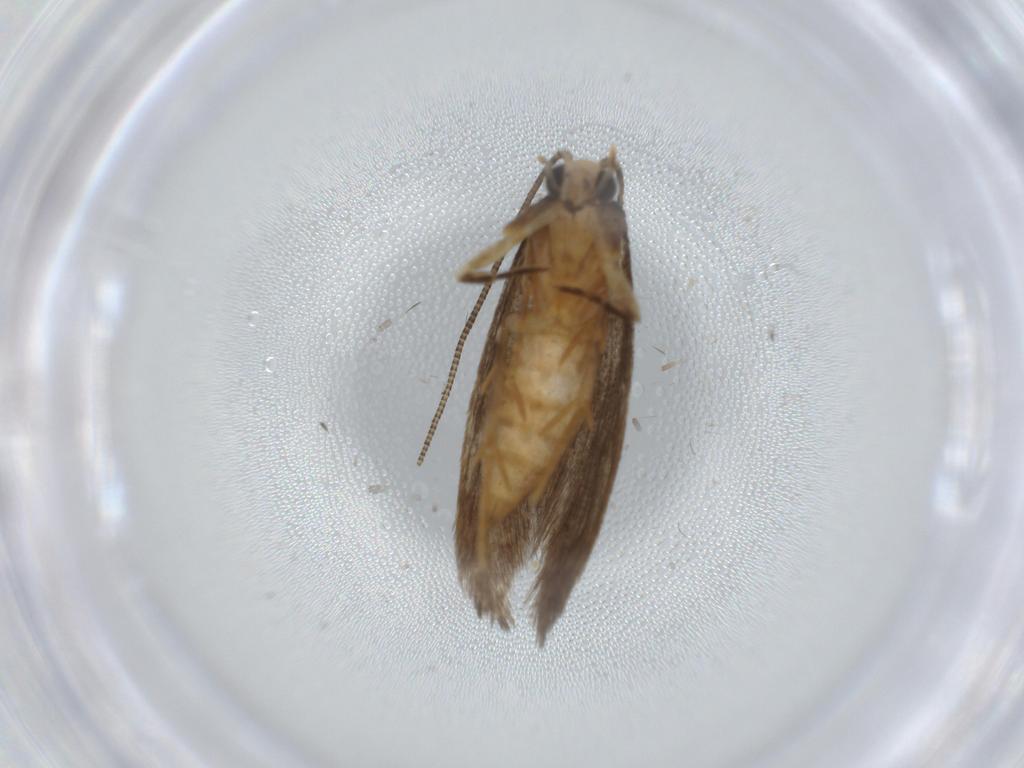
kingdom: Animalia
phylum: Arthropoda
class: Insecta
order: Lepidoptera
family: Tineidae
